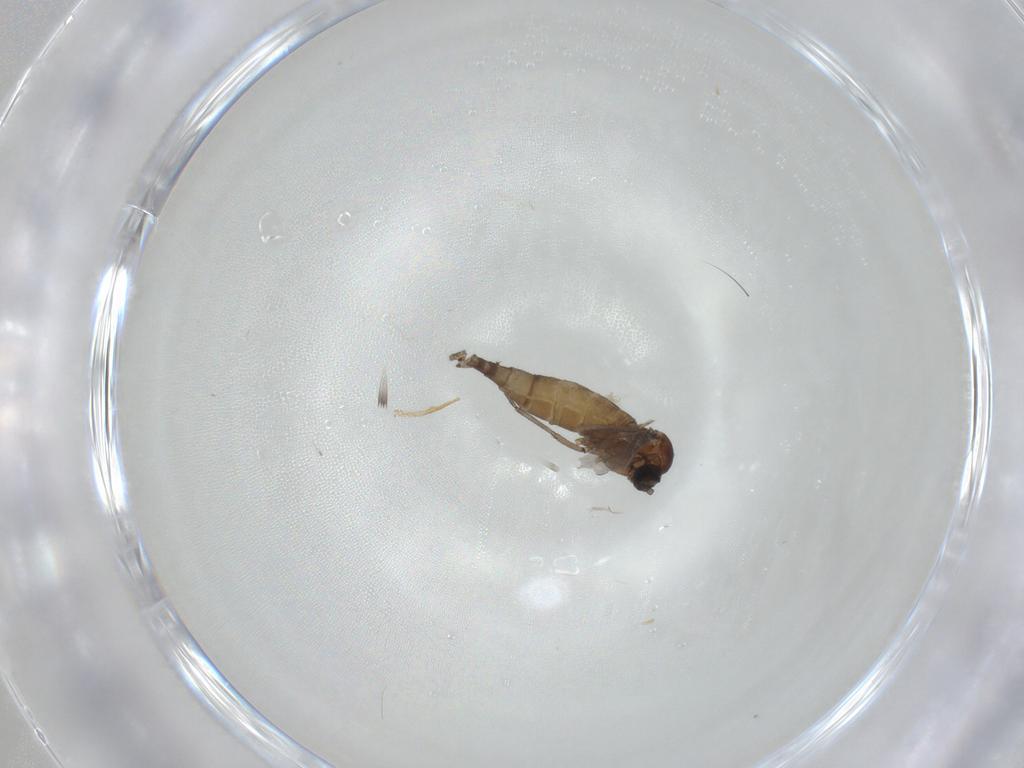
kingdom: Animalia
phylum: Arthropoda
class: Insecta
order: Diptera
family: Sciaridae
